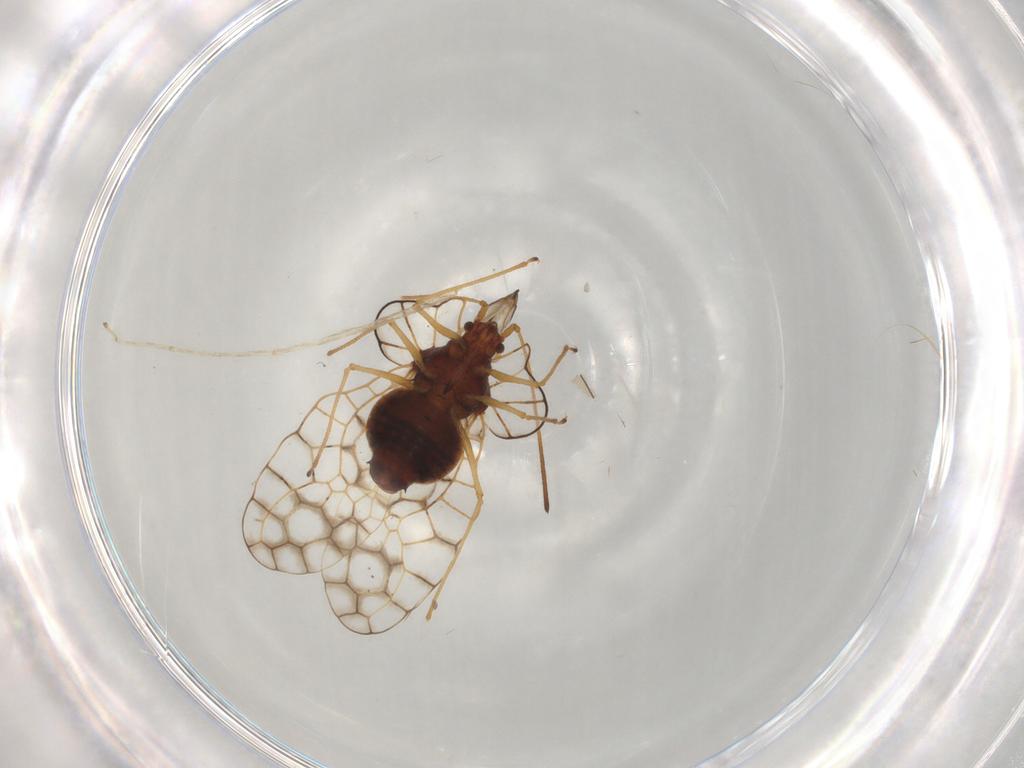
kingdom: Animalia
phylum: Arthropoda
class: Insecta
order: Hemiptera
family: Tingidae
